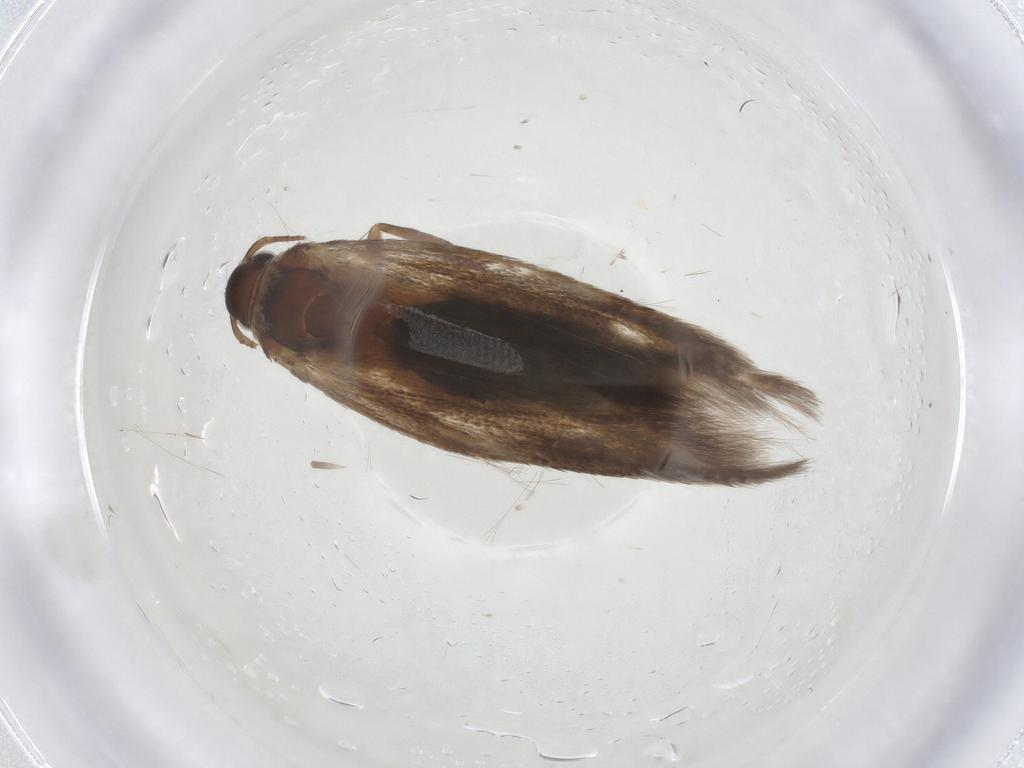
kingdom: Animalia
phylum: Arthropoda
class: Insecta
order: Lepidoptera
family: Cosmopterigidae
